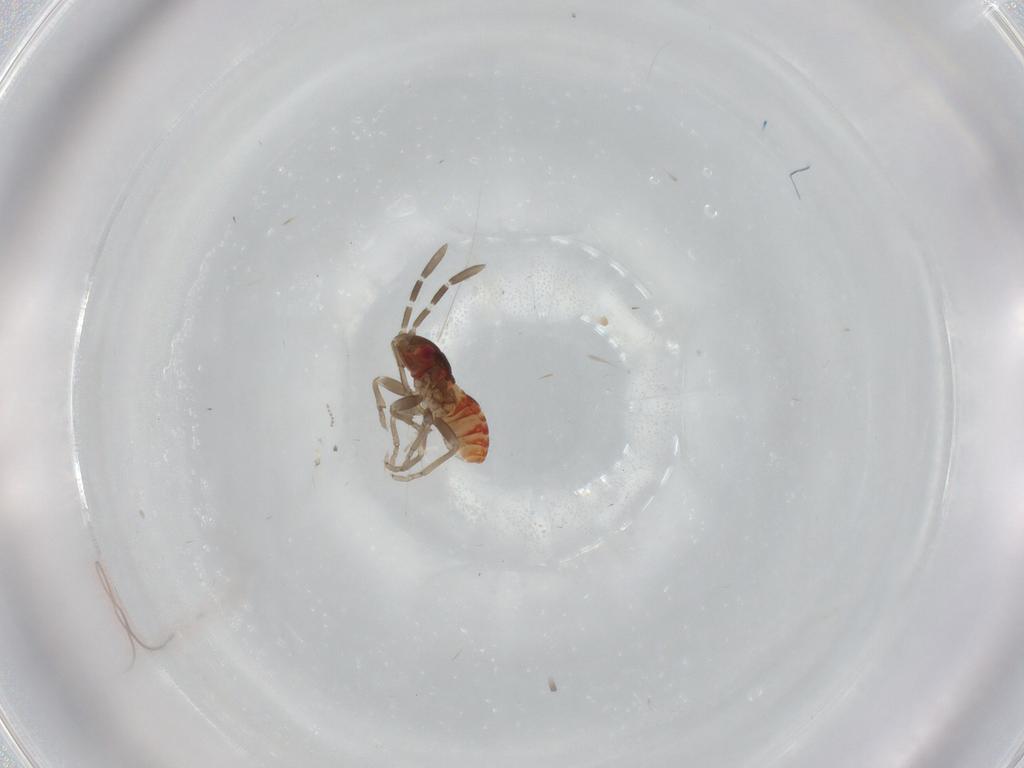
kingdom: Animalia
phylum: Arthropoda
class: Insecta
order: Hemiptera
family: Rhyparochromidae
